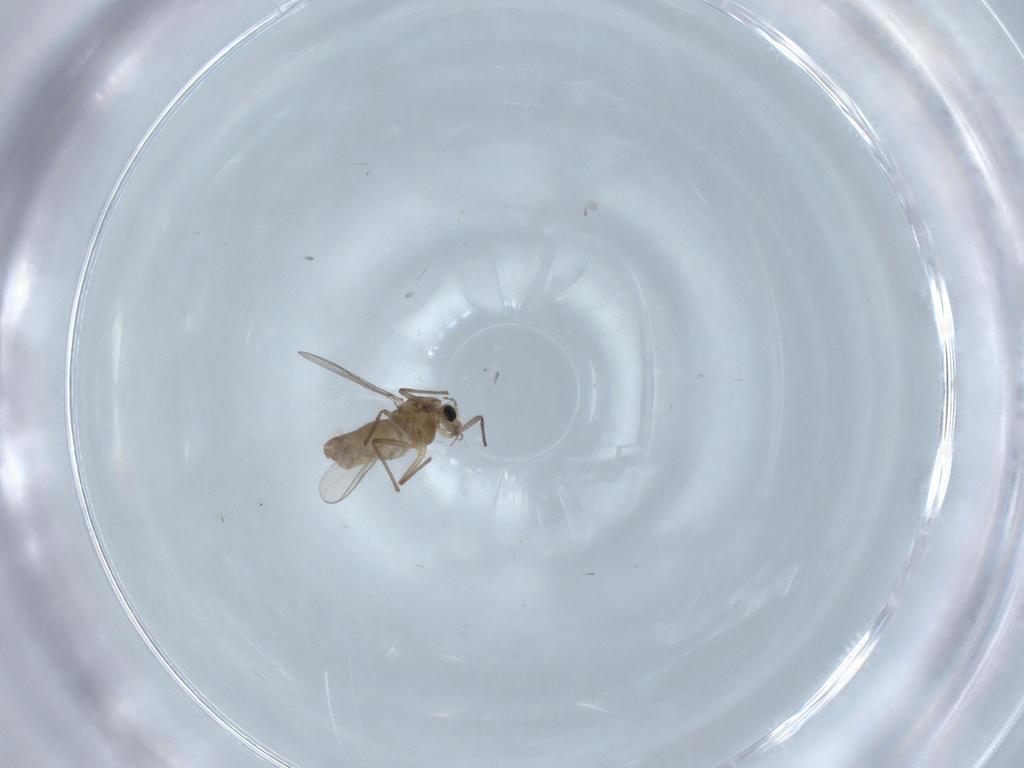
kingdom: Animalia
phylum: Arthropoda
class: Insecta
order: Diptera
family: Chironomidae
